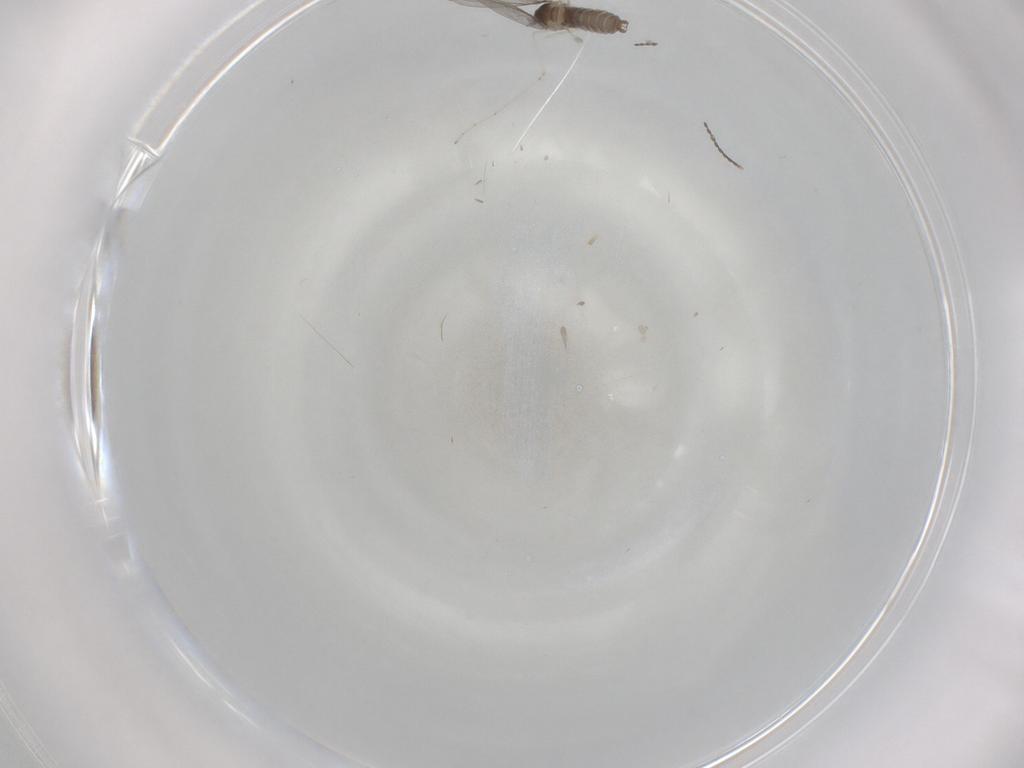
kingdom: Animalia
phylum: Arthropoda
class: Insecta
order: Diptera
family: Cecidomyiidae
